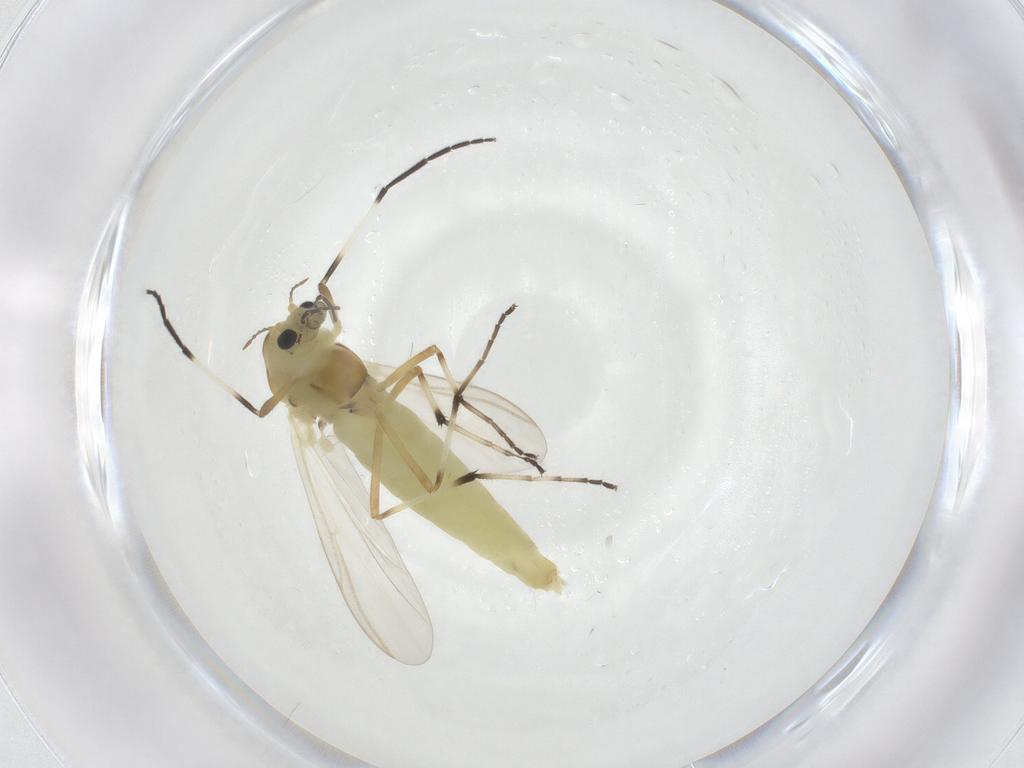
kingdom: Animalia
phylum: Arthropoda
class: Insecta
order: Diptera
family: Chironomidae
